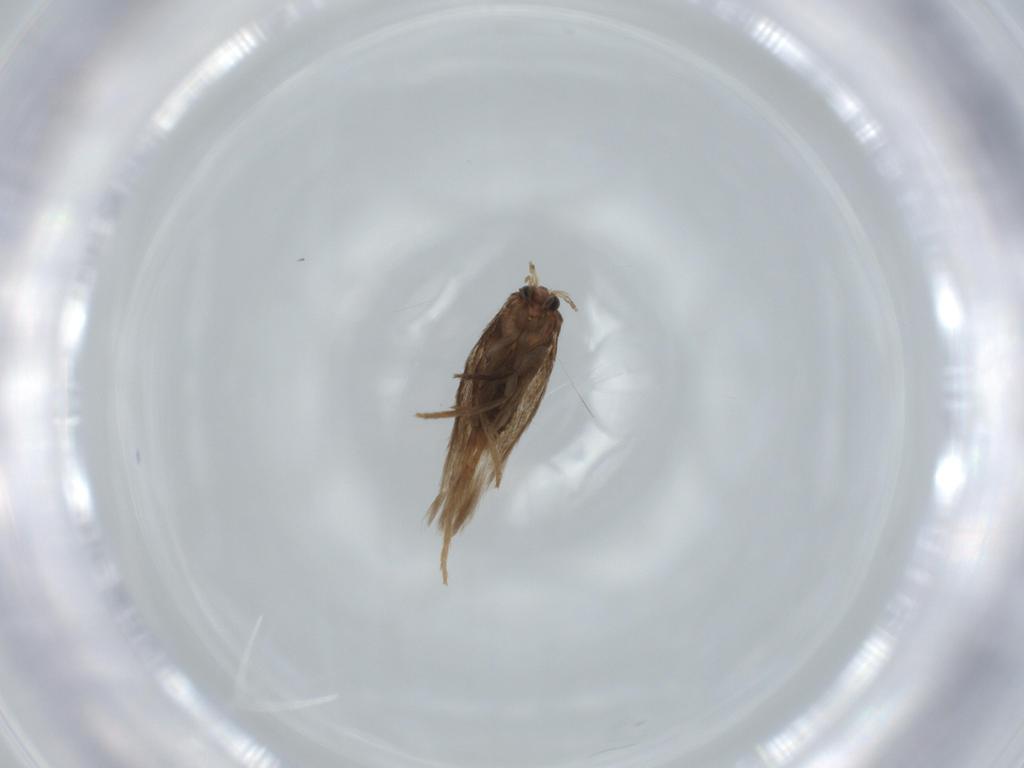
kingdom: Animalia
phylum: Arthropoda
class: Insecta
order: Lepidoptera
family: Nepticulidae
